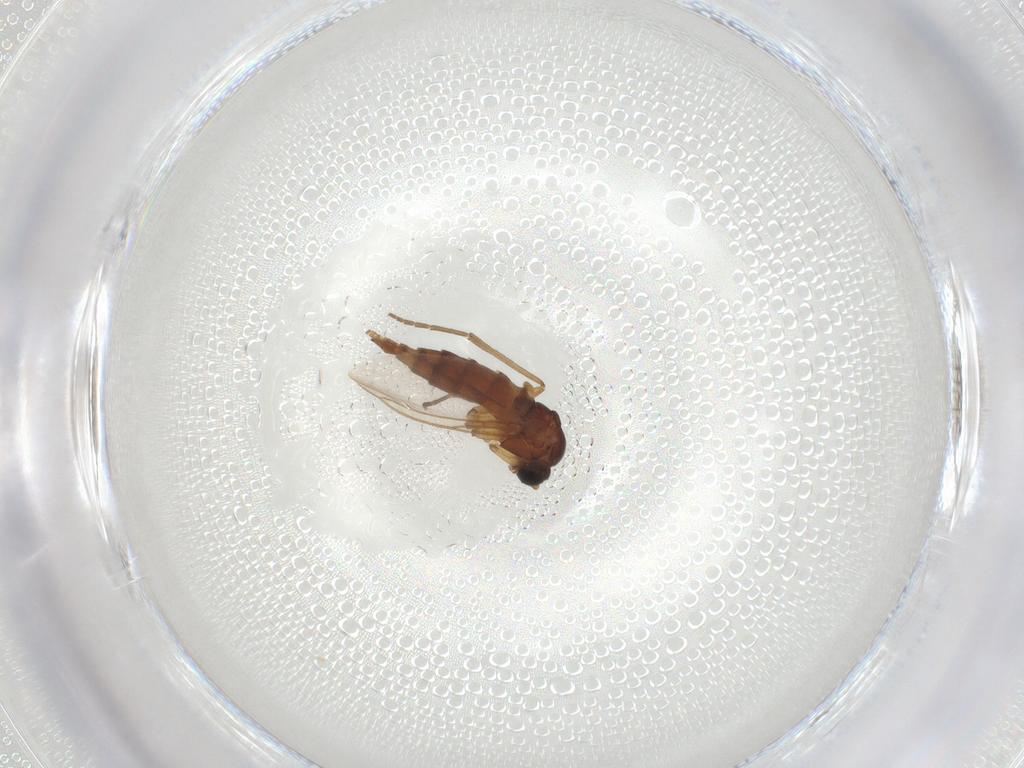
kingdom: Animalia
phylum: Arthropoda
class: Insecta
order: Diptera
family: Sciaridae
